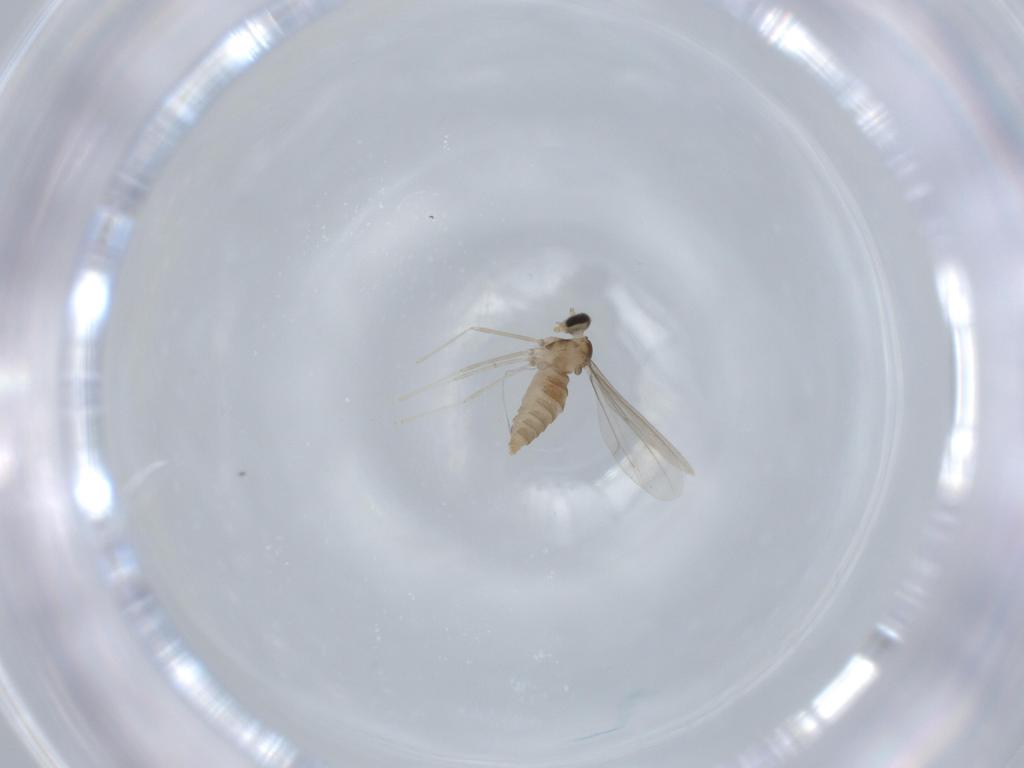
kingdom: Animalia
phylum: Arthropoda
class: Insecta
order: Diptera
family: Cecidomyiidae
